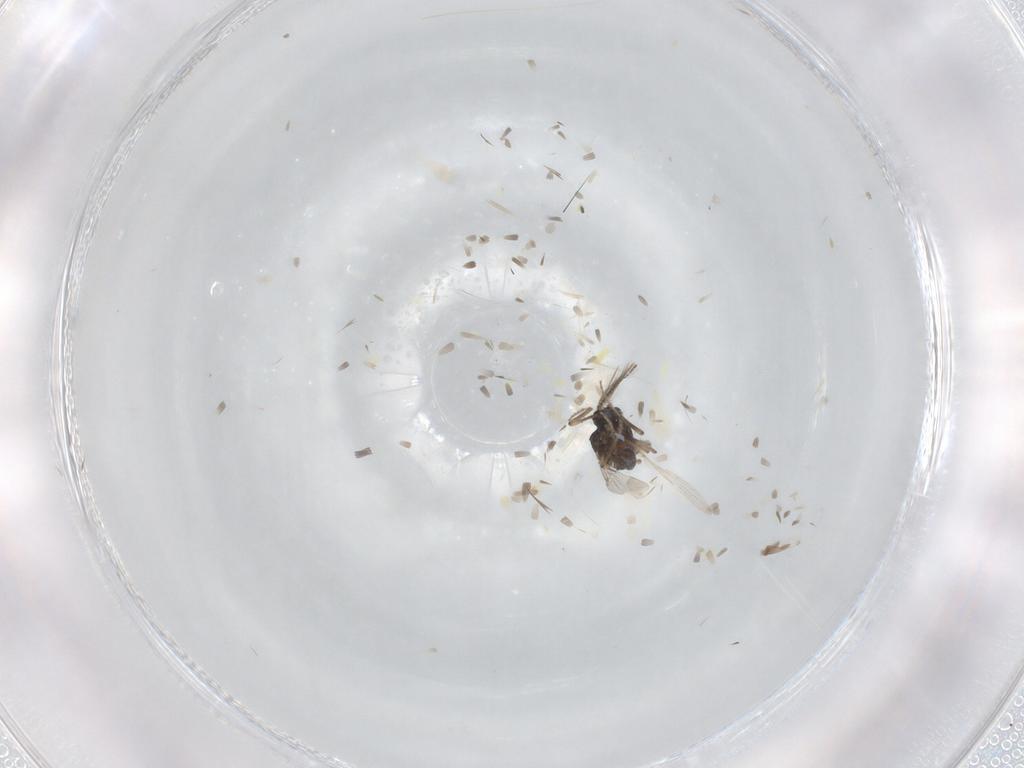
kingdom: Animalia
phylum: Arthropoda
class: Insecta
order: Diptera
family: Ceratopogonidae
